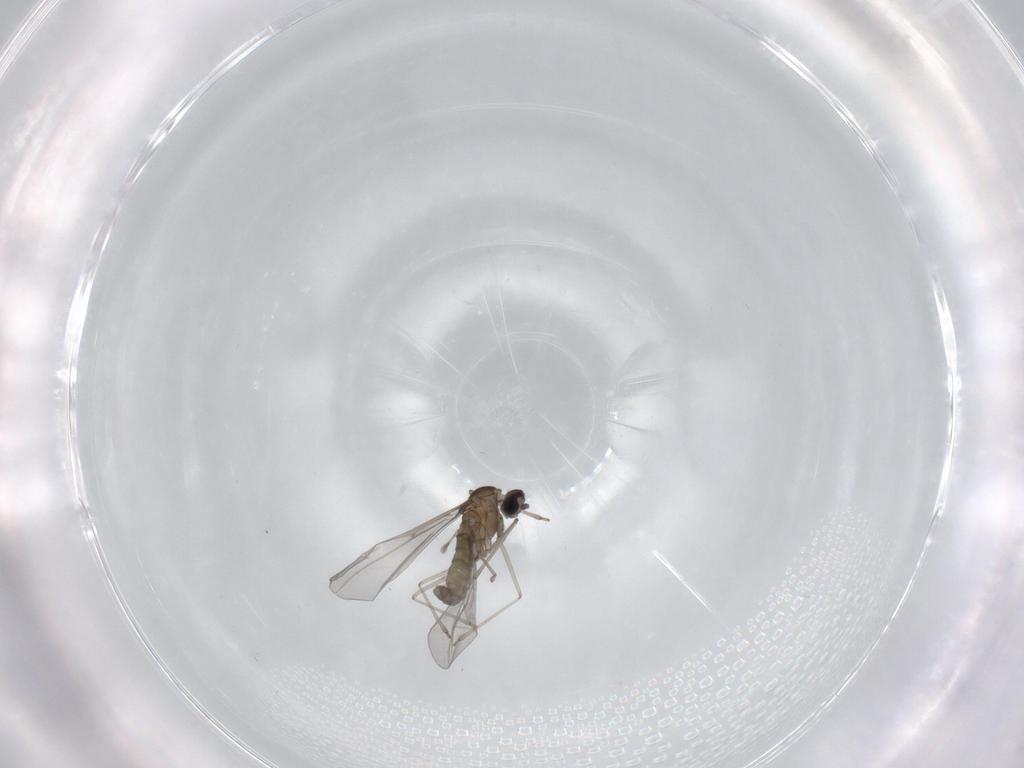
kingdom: Animalia
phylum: Arthropoda
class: Insecta
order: Diptera
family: Cecidomyiidae
